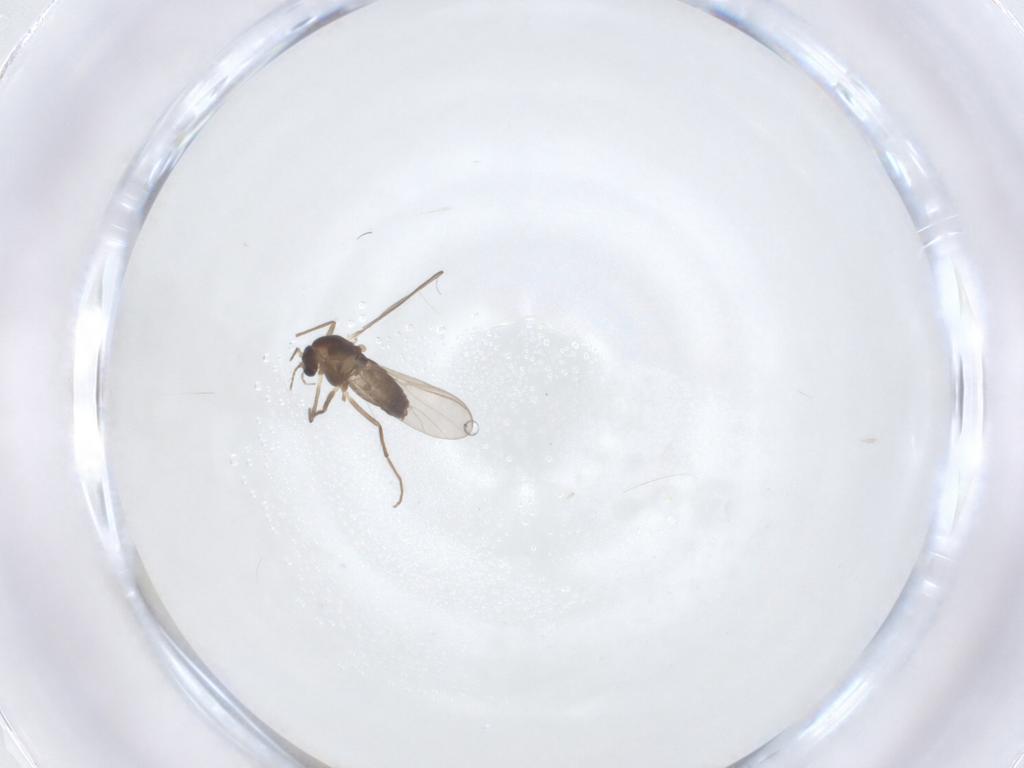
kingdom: Animalia
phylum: Arthropoda
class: Insecta
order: Diptera
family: Chironomidae
